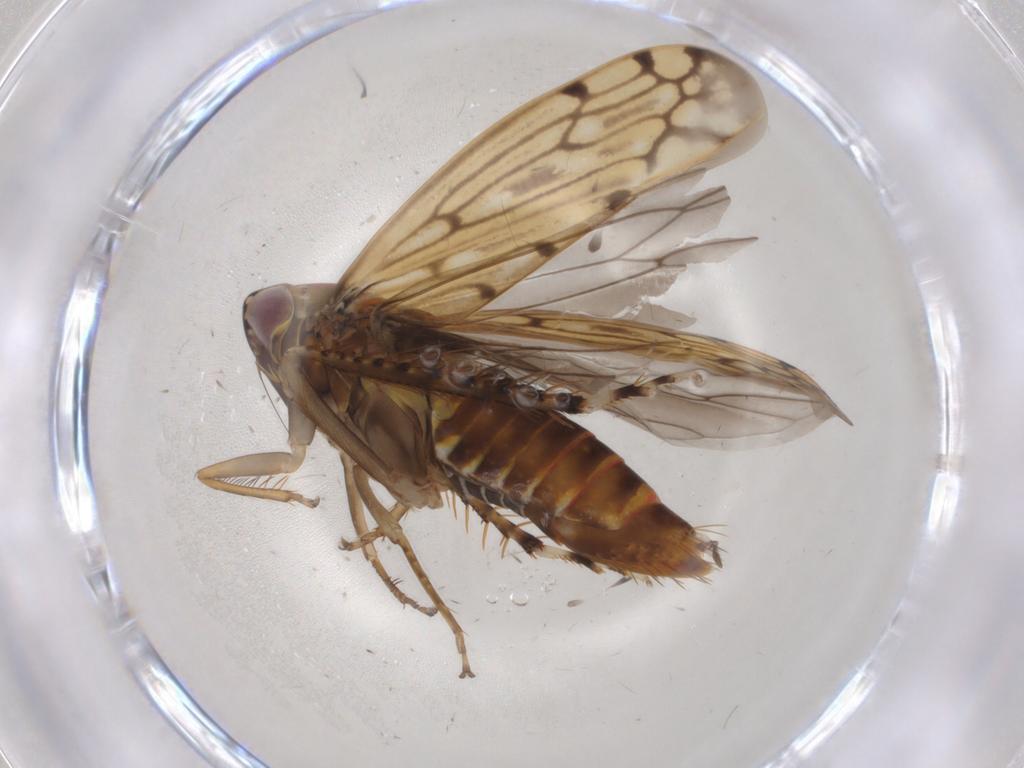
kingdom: Animalia
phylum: Arthropoda
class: Insecta
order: Hemiptera
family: Cicadellidae
